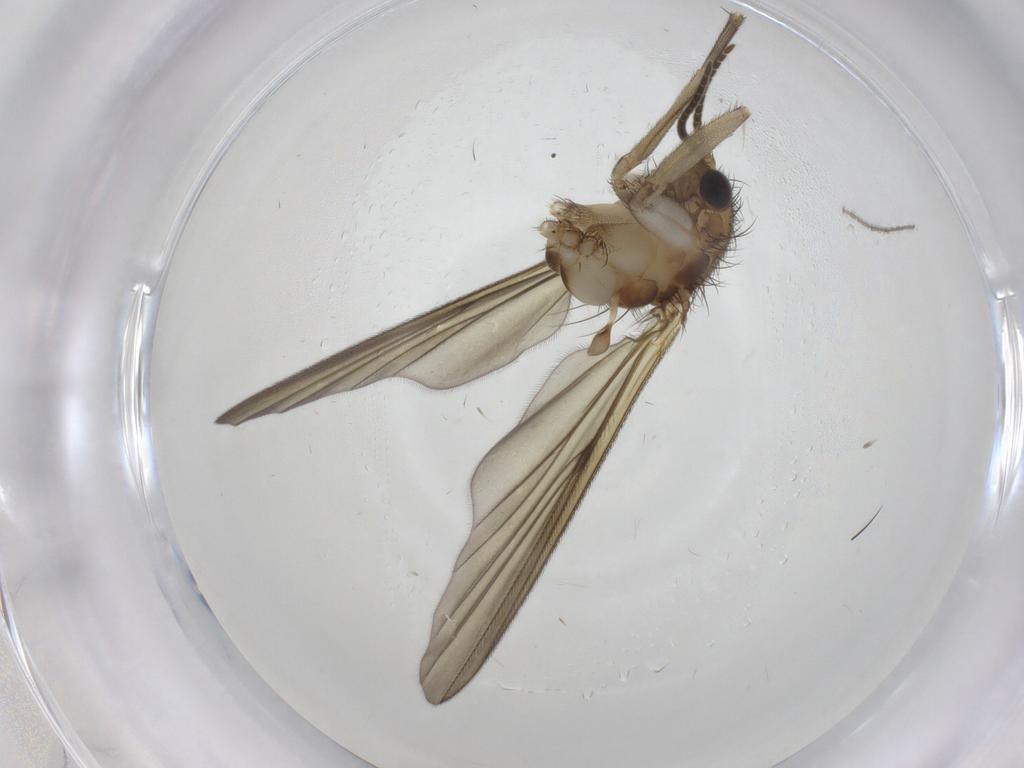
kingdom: Animalia
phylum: Arthropoda
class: Insecta
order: Diptera
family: Mycetophilidae
